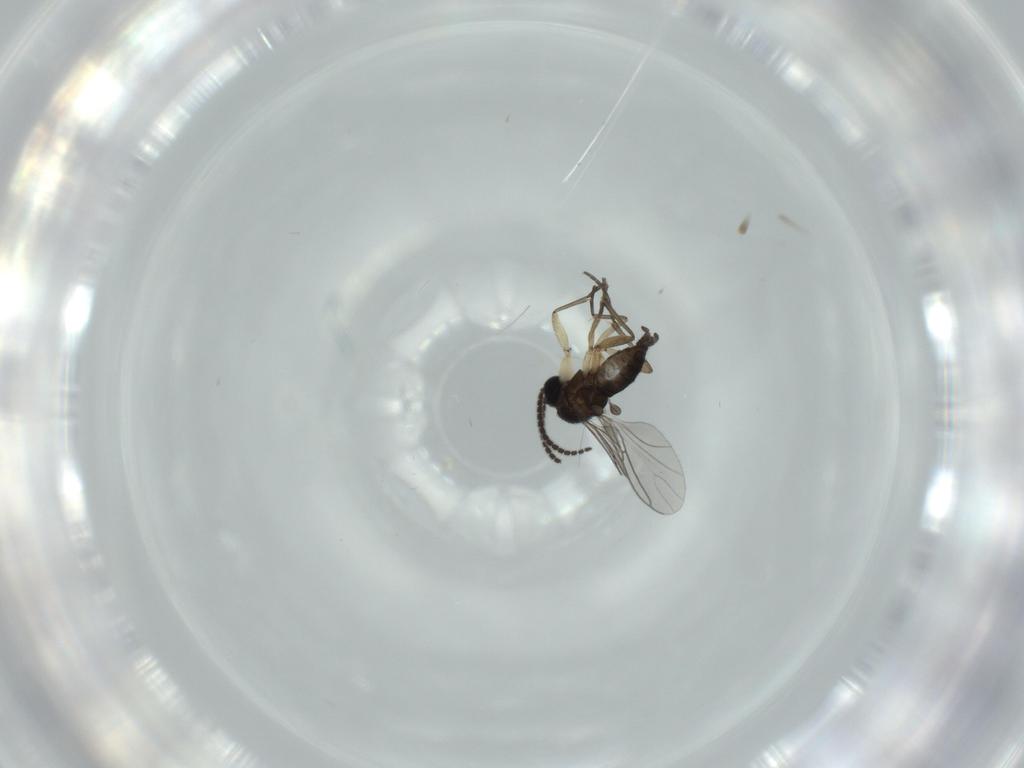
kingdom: Animalia
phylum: Arthropoda
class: Insecta
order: Diptera
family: Sciaridae
